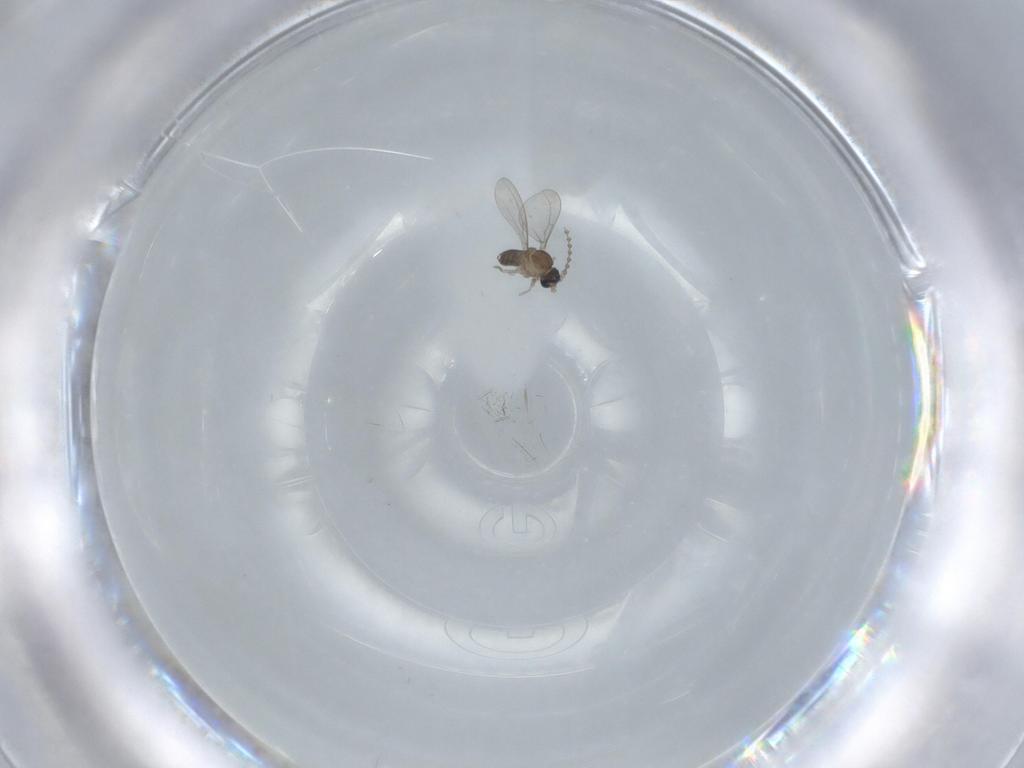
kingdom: Animalia
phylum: Arthropoda
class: Insecta
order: Diptera
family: Cecidomyiidae
